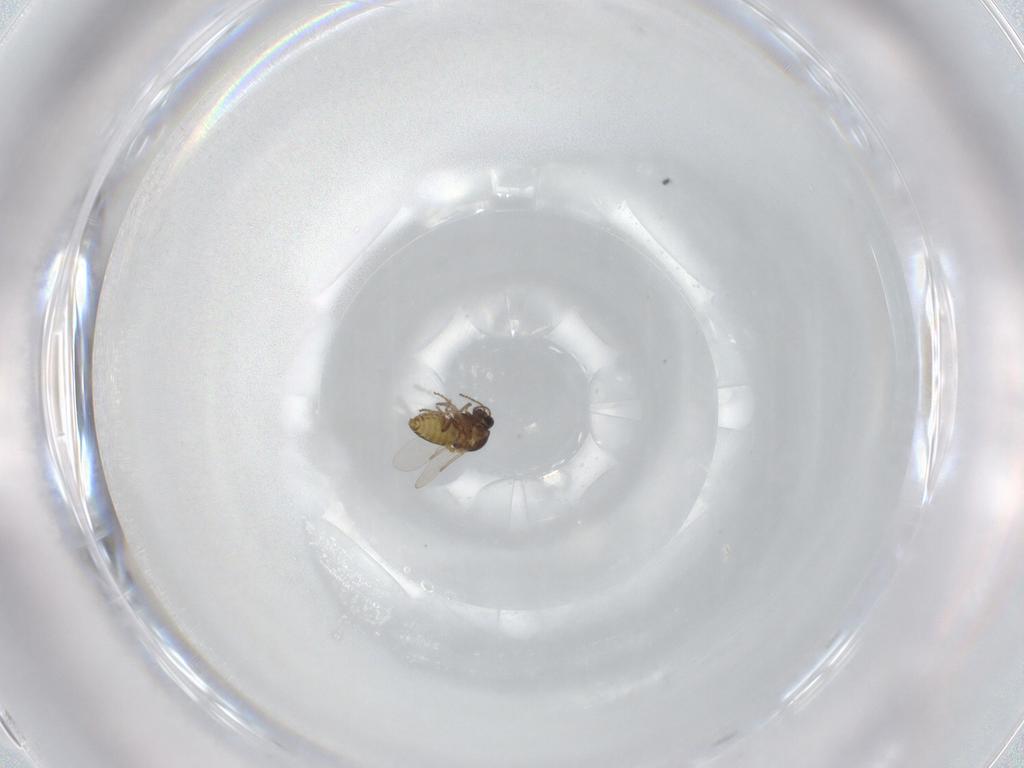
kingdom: Animalia
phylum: Arthropoda
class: Insecta
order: Diptera
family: Ceratopogonidae
